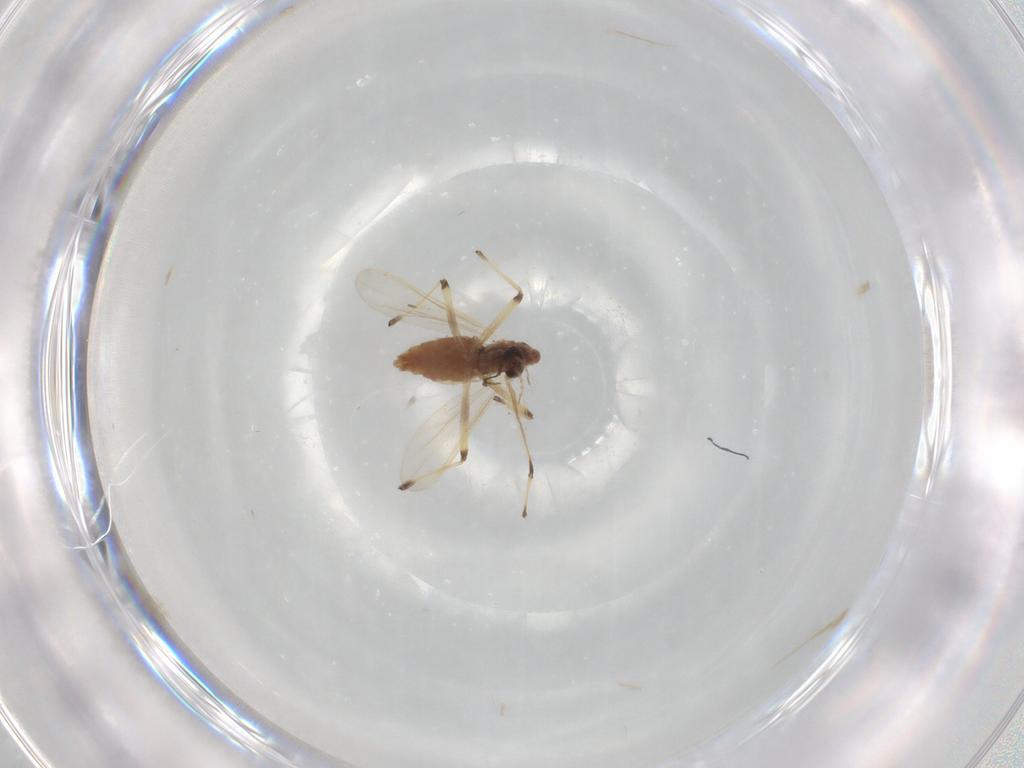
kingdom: Animalia
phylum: Arthropoda
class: Insecta
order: Diptera
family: Chironomidae
